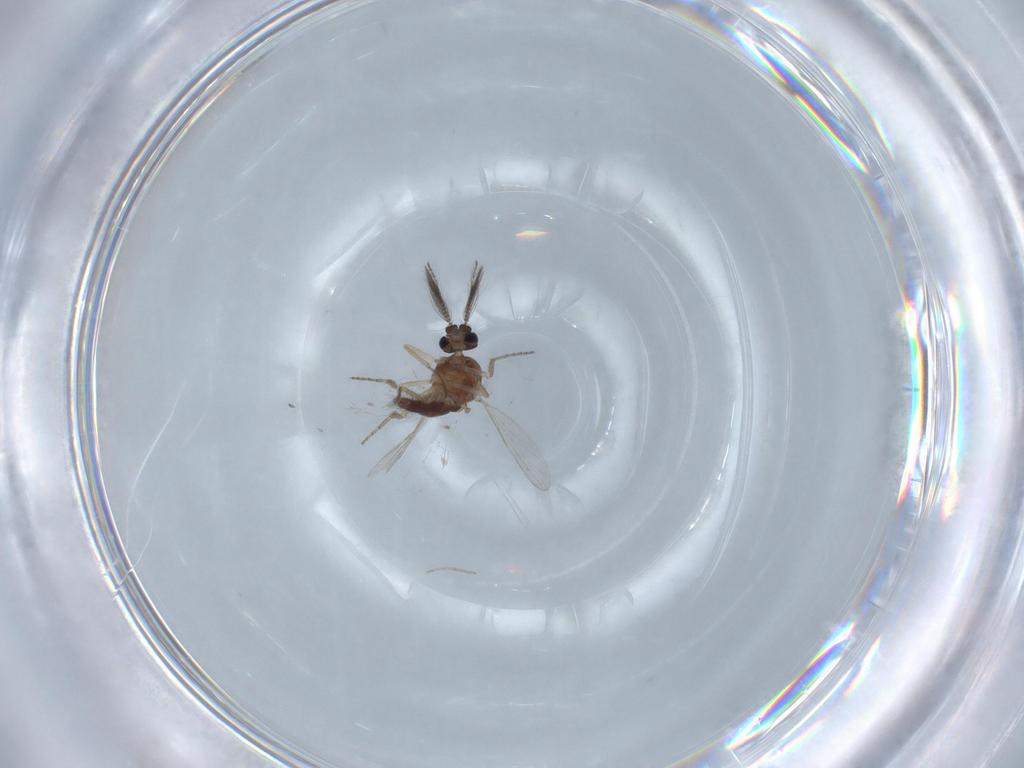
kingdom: Animalia
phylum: Arthropoda
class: Insecta
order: Diptera
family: Ceratopogonidae
